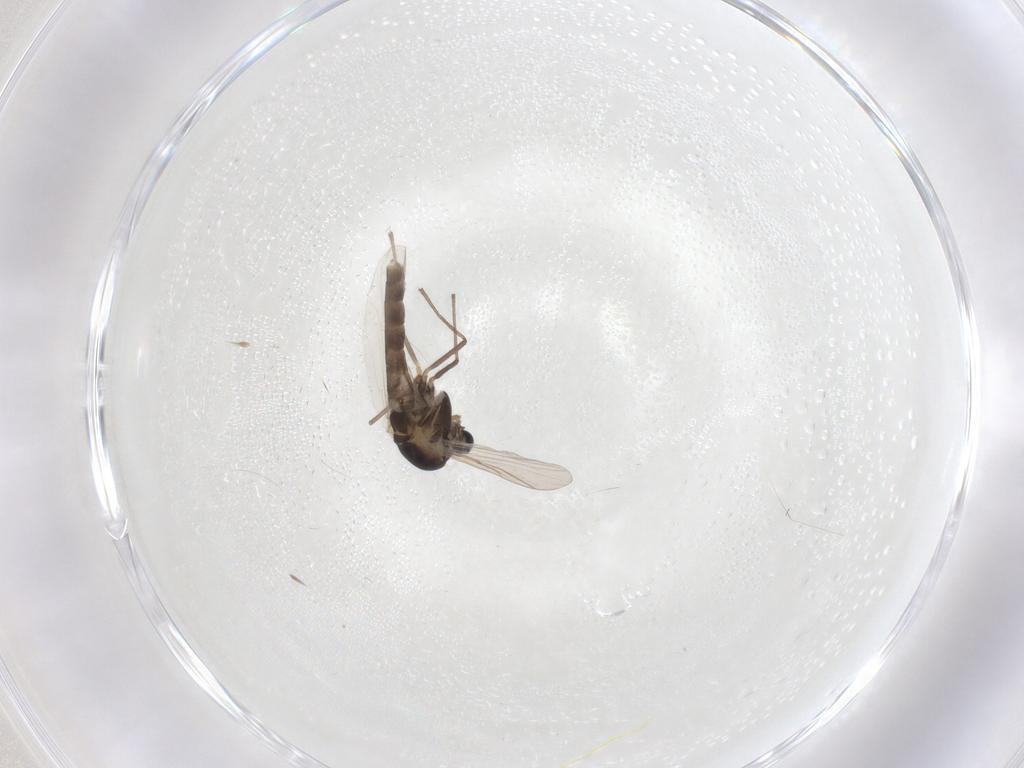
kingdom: Animalia
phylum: Arthropoda
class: Insecta
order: Diptera
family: Chironomidae
